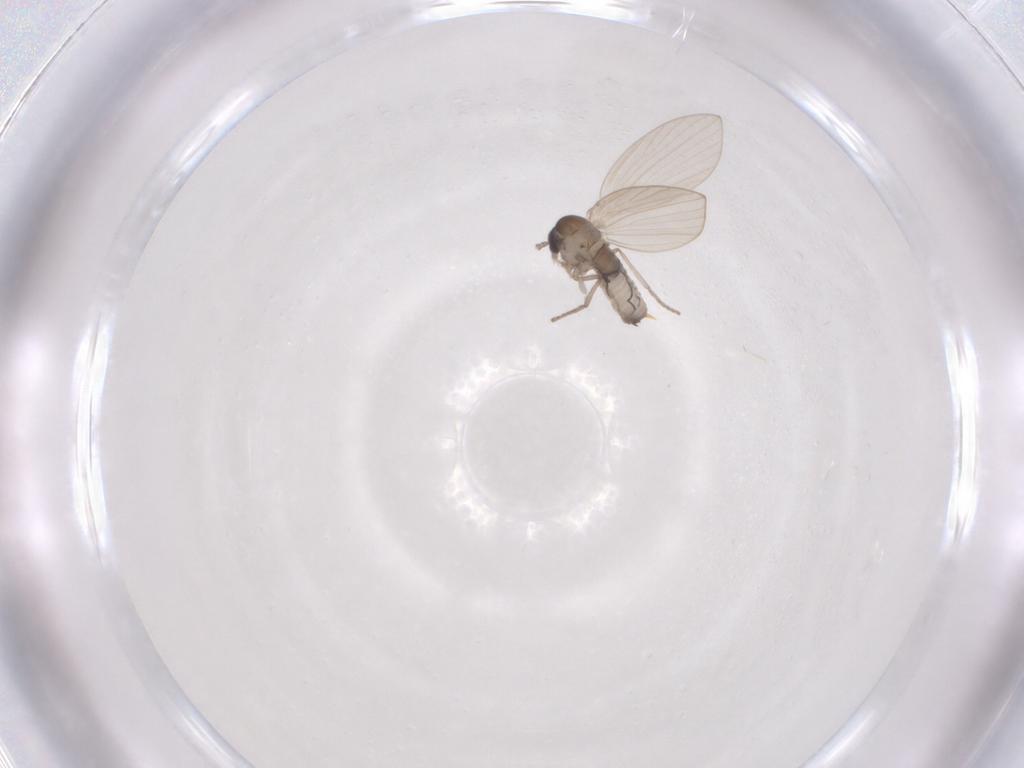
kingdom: Animalia
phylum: Arthropoda
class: Insecta
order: Diptera
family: Psychodidae
